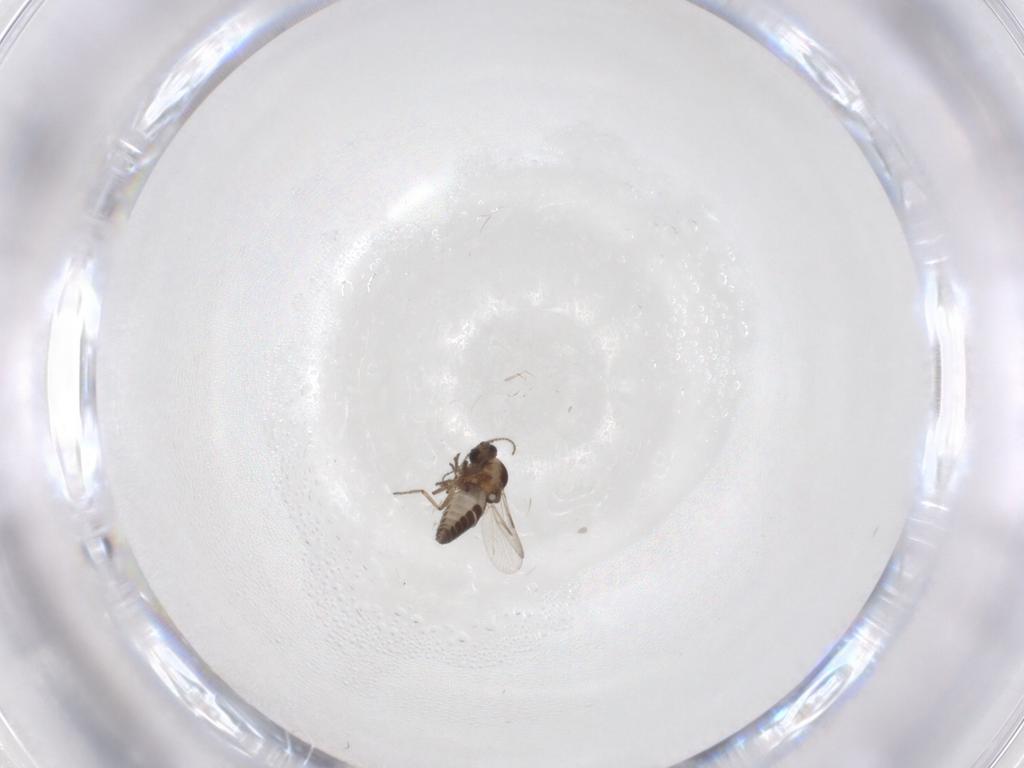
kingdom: Animalia
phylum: Arthropoda
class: Insecta
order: Diptera
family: Ceratopogonidae
